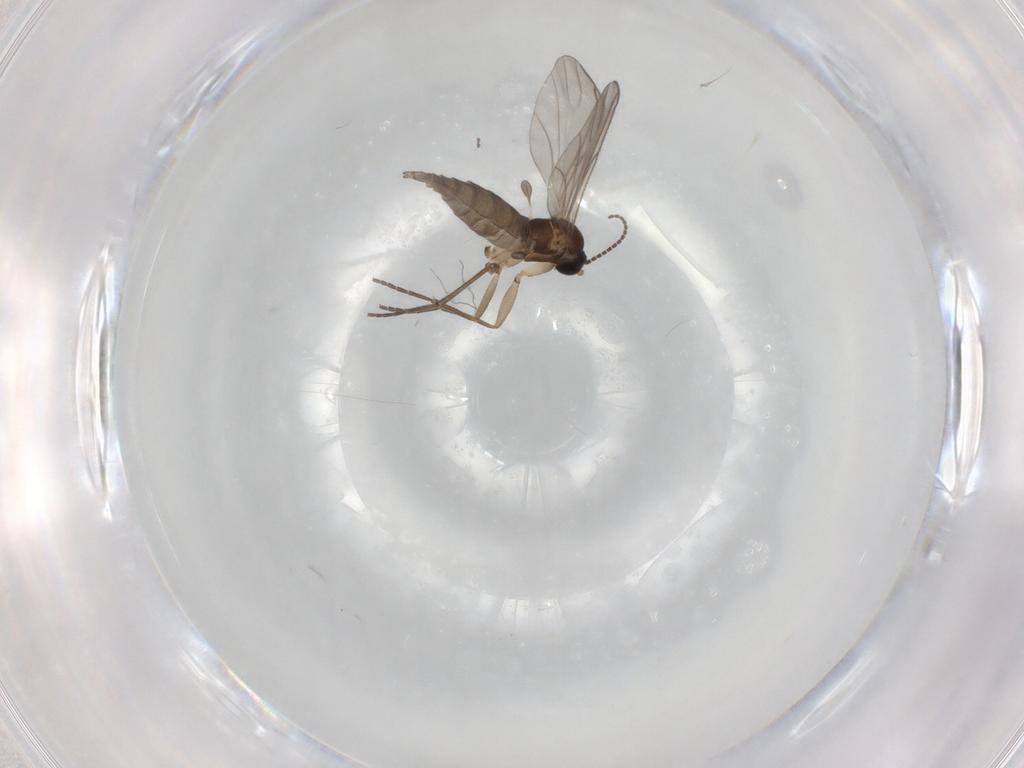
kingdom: Animalia
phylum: Arthropoda
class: Insecta
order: Diptera
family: Sciaridae
